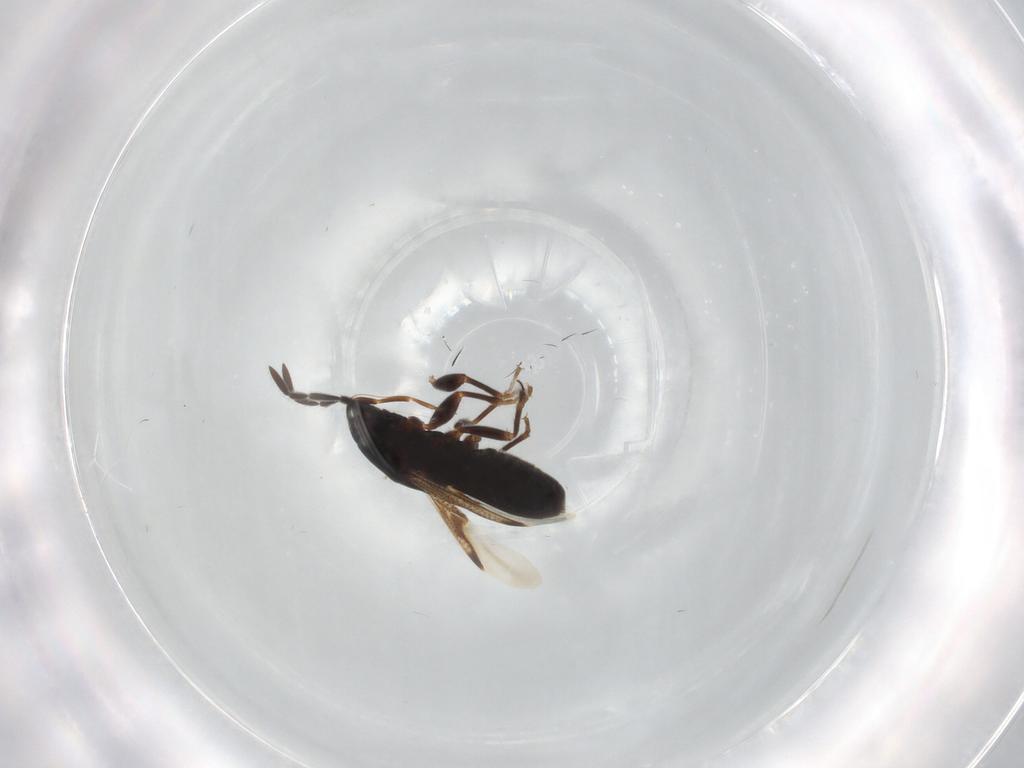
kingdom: Animalia
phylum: Arthropoda
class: Insecta
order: Hemiptera
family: Rhyparochromidae
